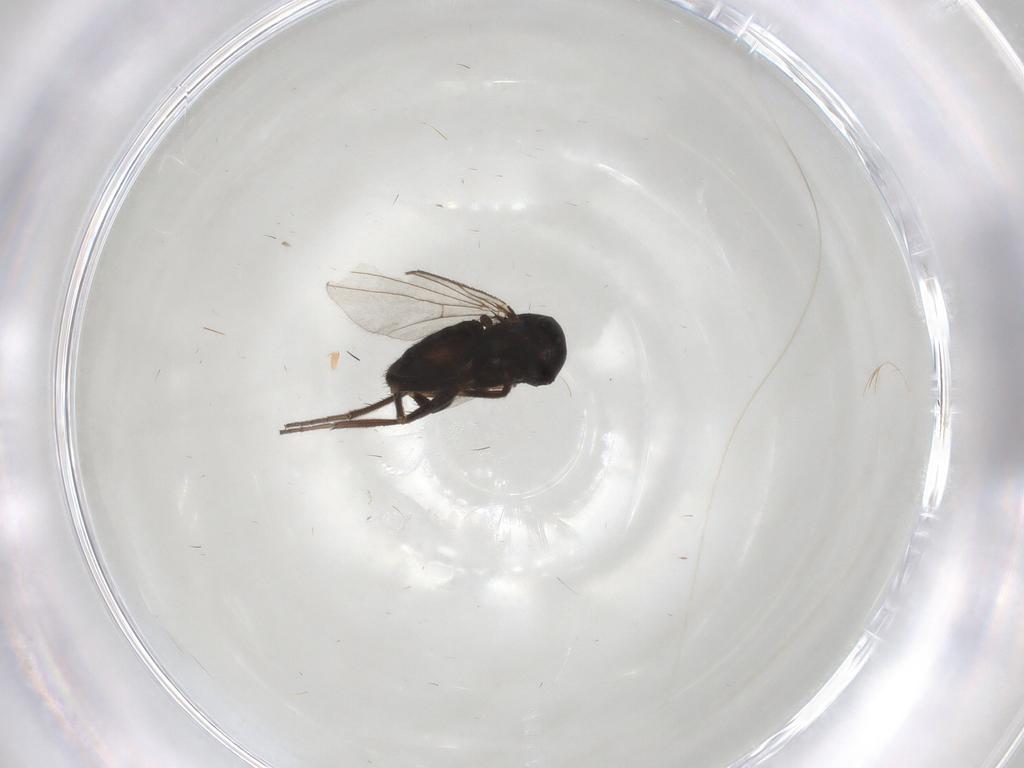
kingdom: Animalia
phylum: Arthropoda
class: Insecta
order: Diptera
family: Dolichopodidae
